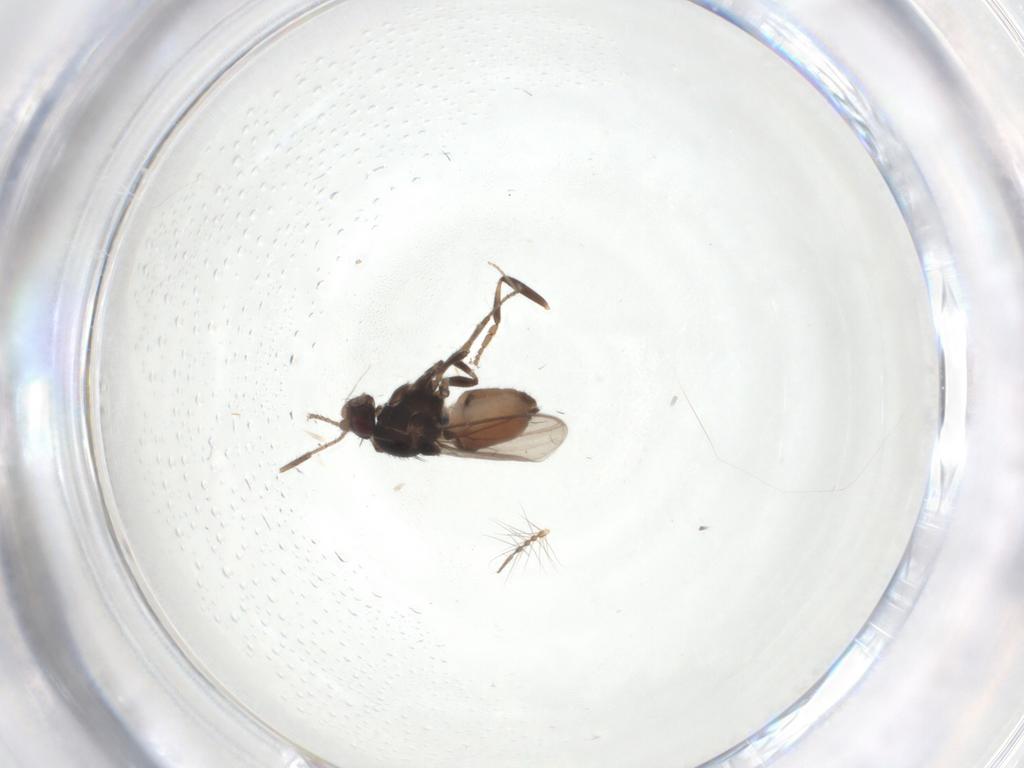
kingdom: Animalia
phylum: Arthropoda
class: Insecta
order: Diptera
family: Sphaeroceridae
